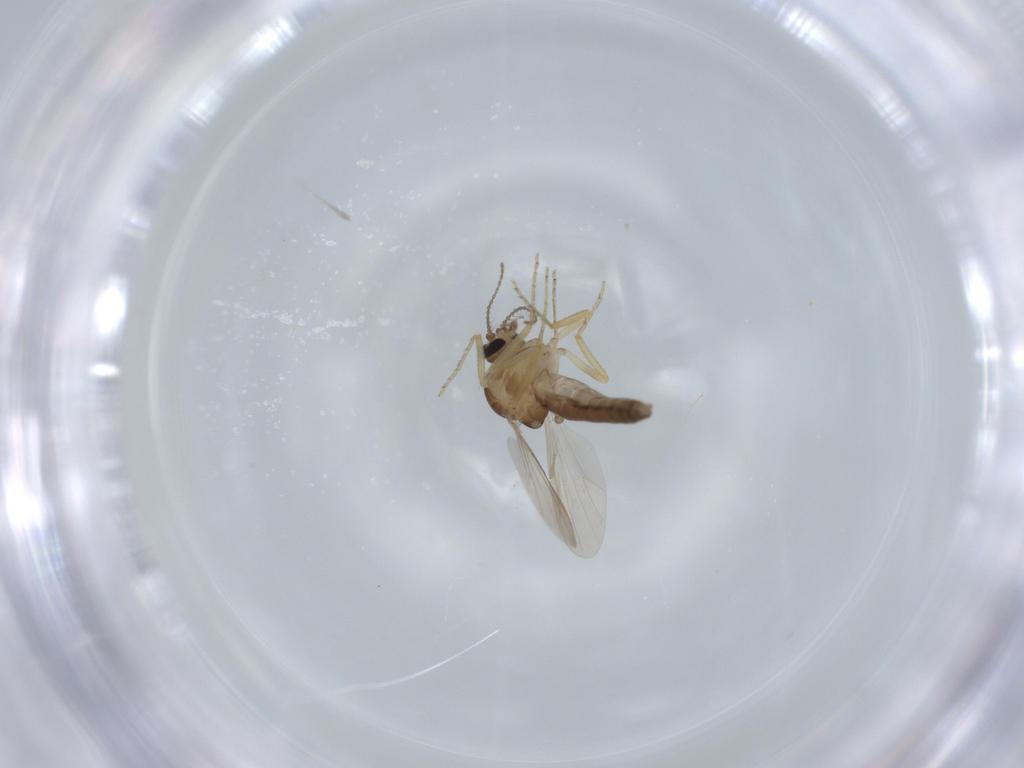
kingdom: Animalia
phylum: Arthropoda
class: Insecta
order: Diptera
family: Ceratopogonidae
